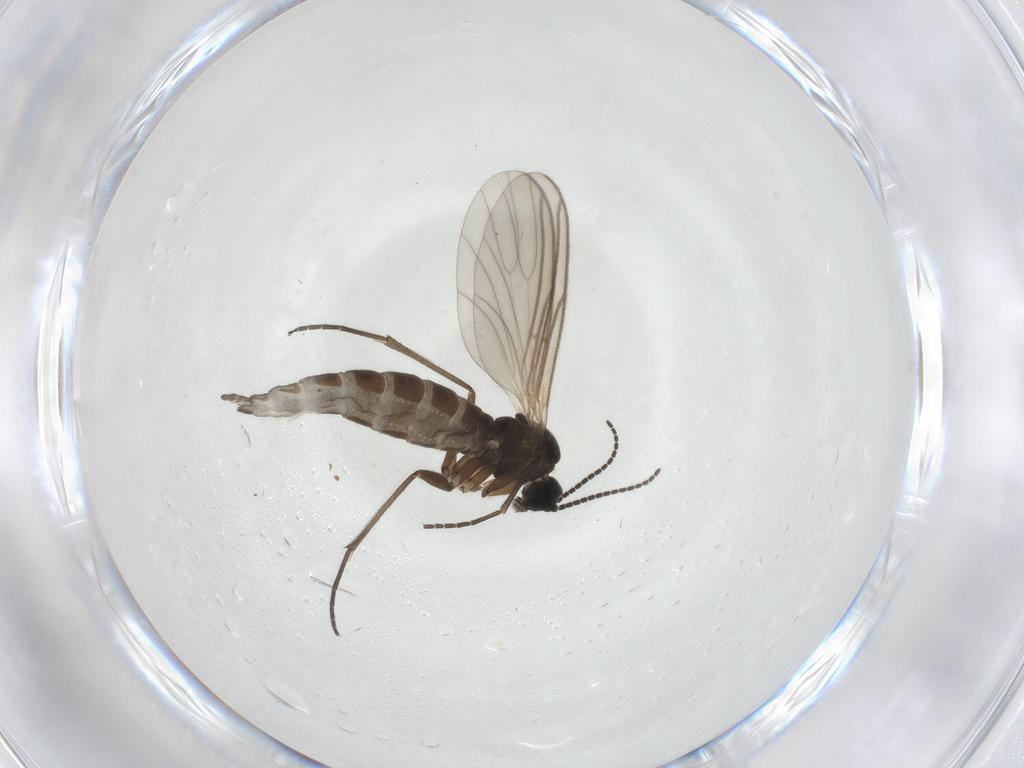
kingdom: Animalia
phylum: Arthropoda
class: Insecta
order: Diptera
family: Sciaridae
